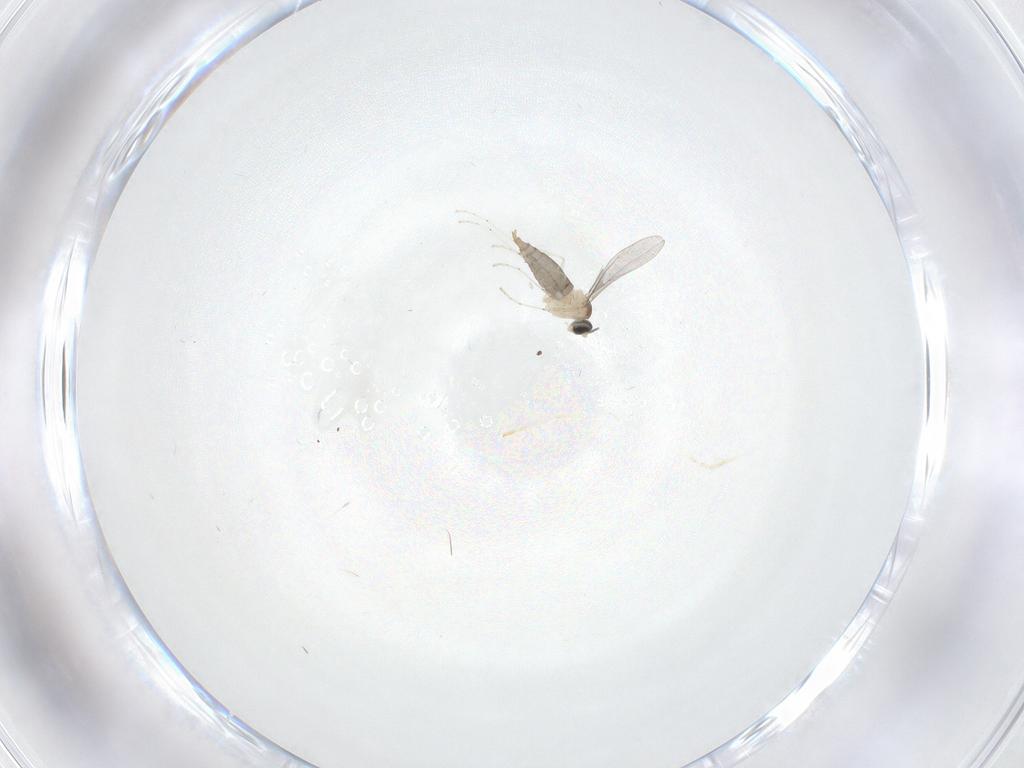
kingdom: Animalia
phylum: Arthropoda
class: Insecta
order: Diptera
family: Cecidomyiidae
